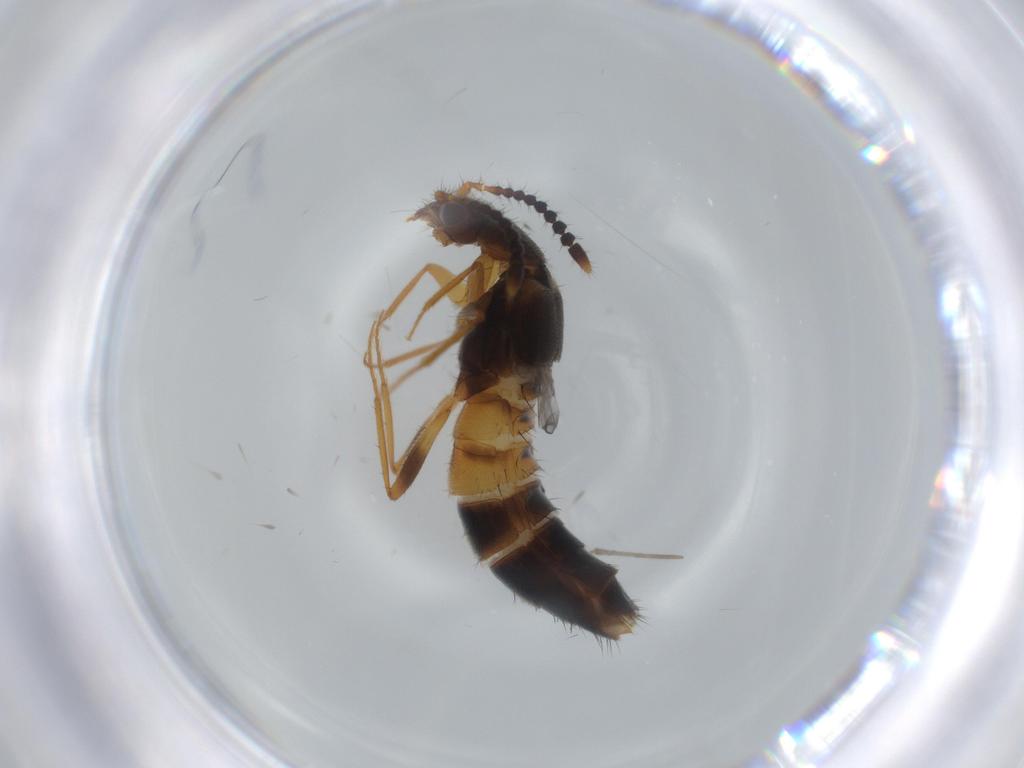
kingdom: Animalia
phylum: Arthropoda
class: Insecta
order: Coleoptera
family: Staphylinidae
